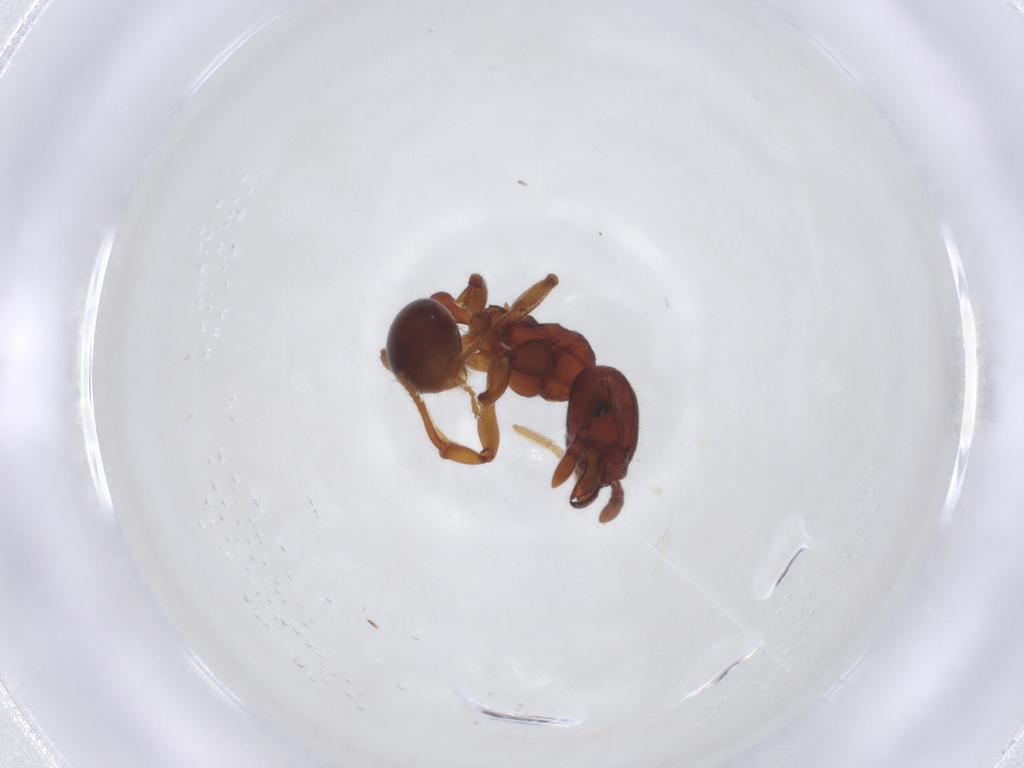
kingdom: Animalia
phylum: Arthropoda
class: Insecta
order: Hymenoptera
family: Formicidae
